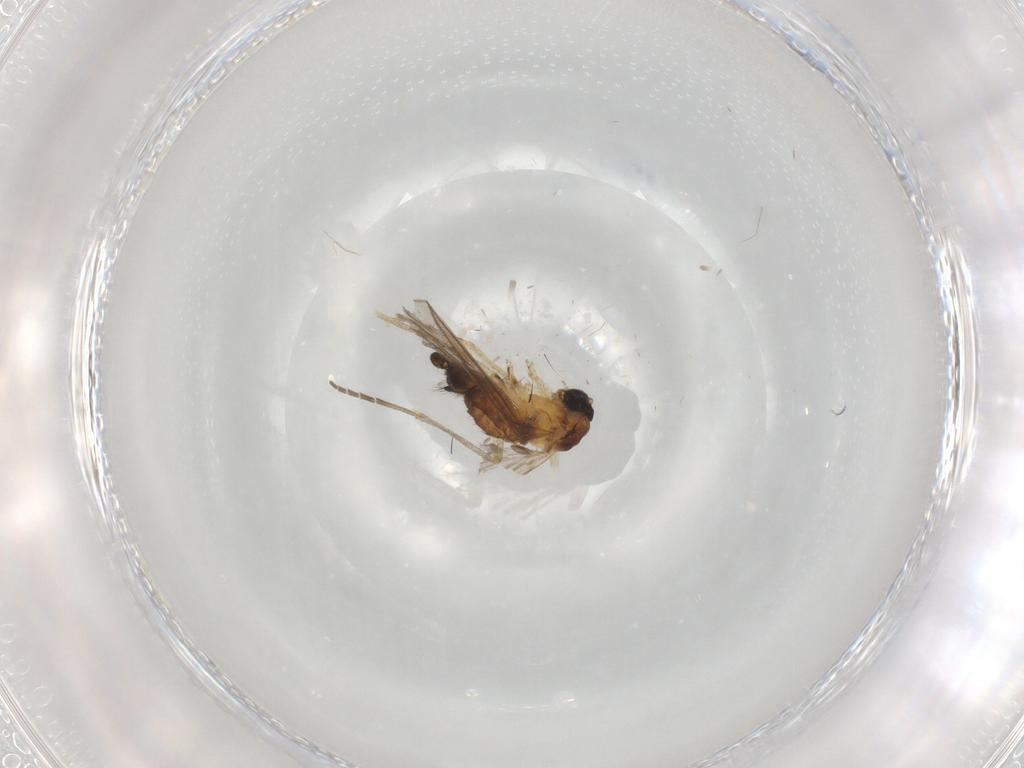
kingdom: Animalia
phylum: Arthropoda
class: Insecta
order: Diptera
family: Sciaridae
